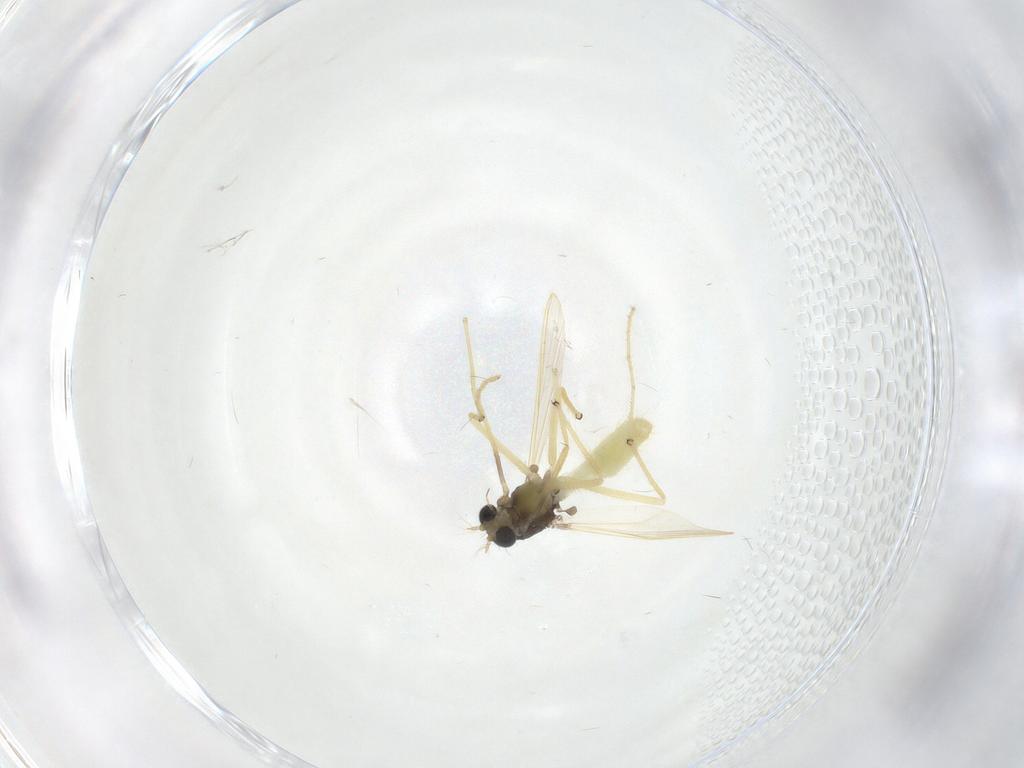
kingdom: Animalia
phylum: Arthropoda
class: Insecta
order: Diptera
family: Chironomidae
